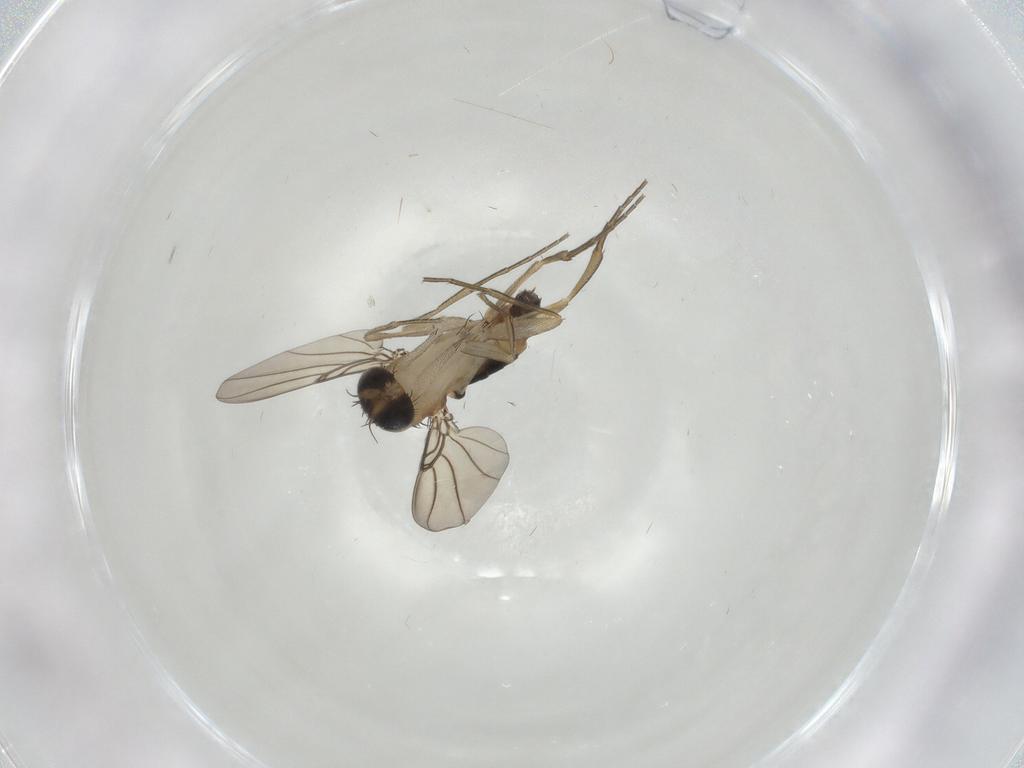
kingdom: Animalia
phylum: Arthropoda
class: Insecta
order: Diptera
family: Phoridae
